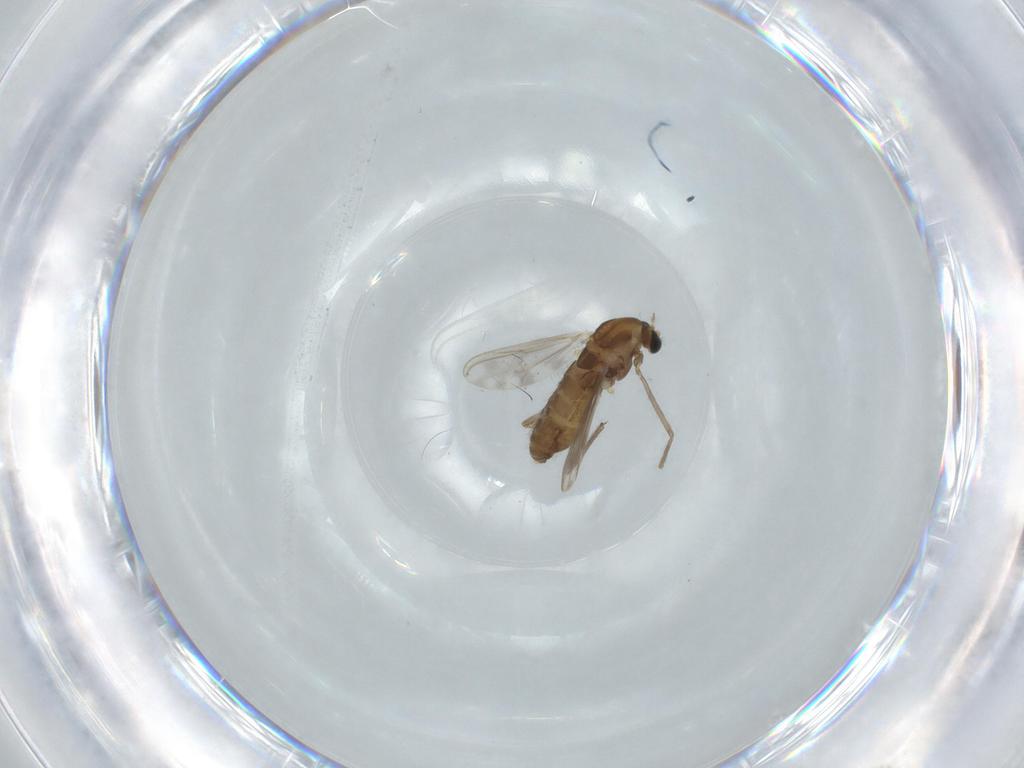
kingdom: Animalia
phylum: Arthropoda
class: Insecta
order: Diptera
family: Chironomidae
